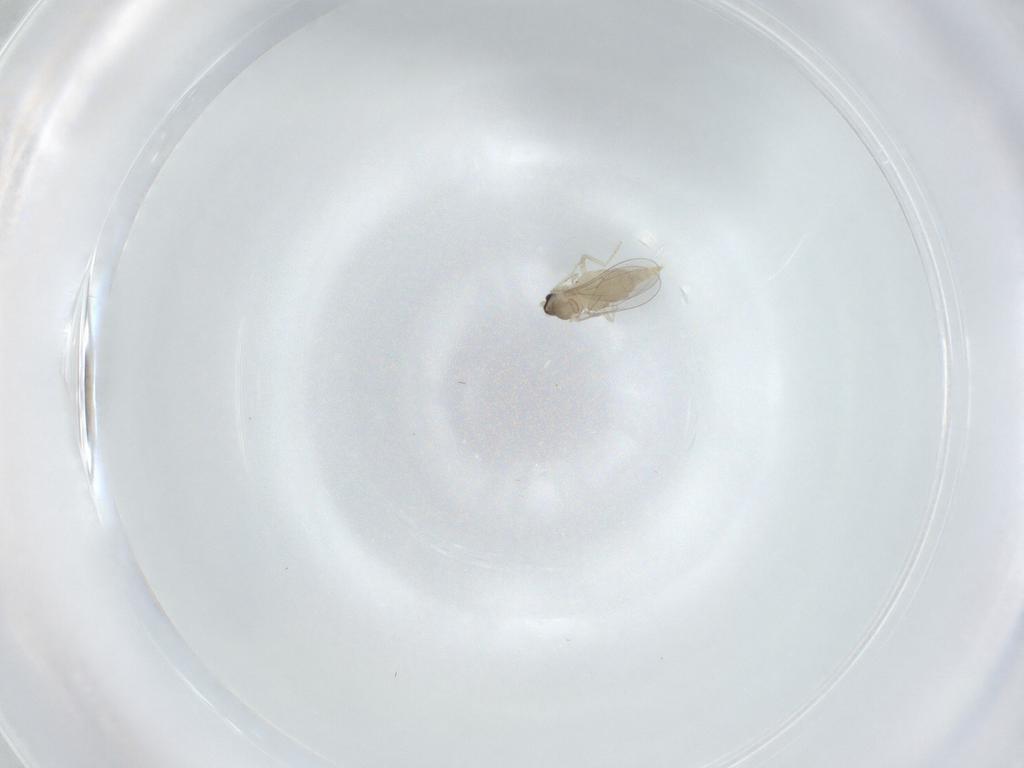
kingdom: Animalia
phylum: Arthropoda
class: Insecta
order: Diptera
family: Cecidomyiidae
